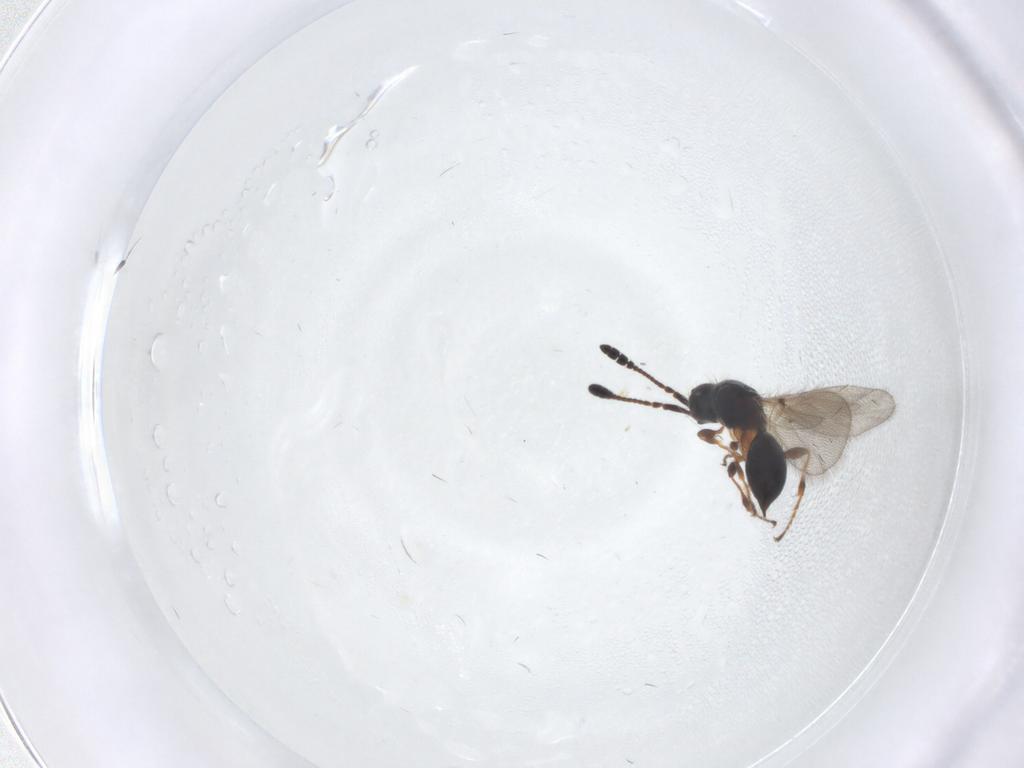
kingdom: Animalia
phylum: Arthropoda
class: Insecta
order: Hymenoptera
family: Diapriidae
